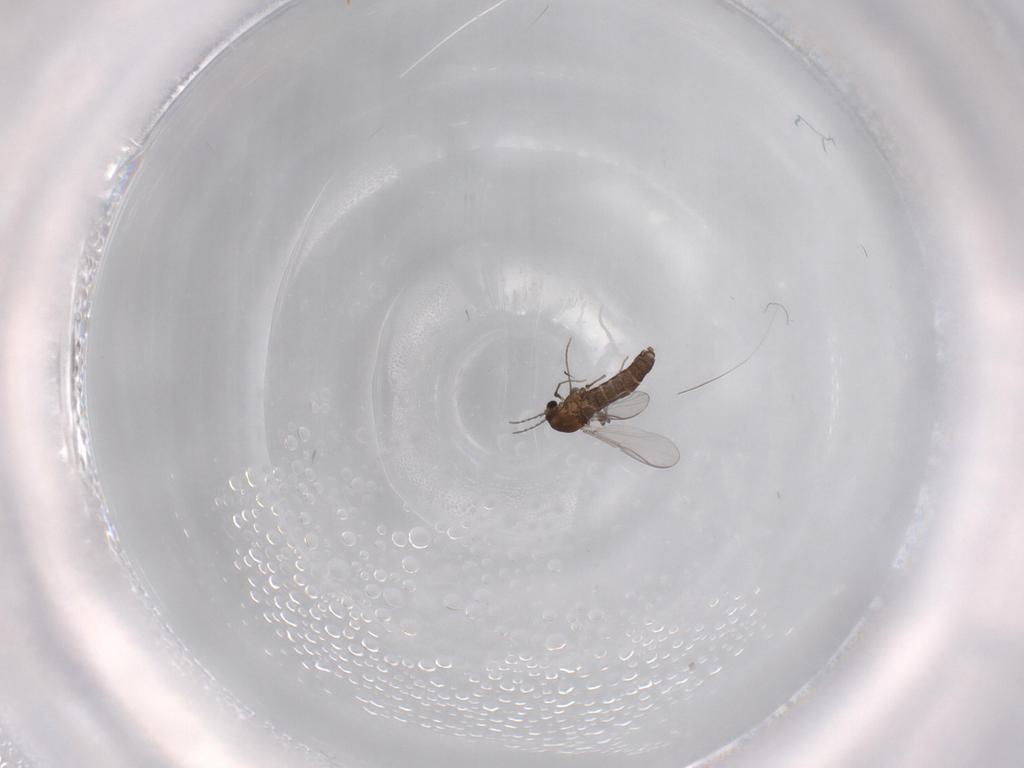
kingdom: Animalia
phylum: Arthropoda
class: Insecta
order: Diptera
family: Chironomidae
